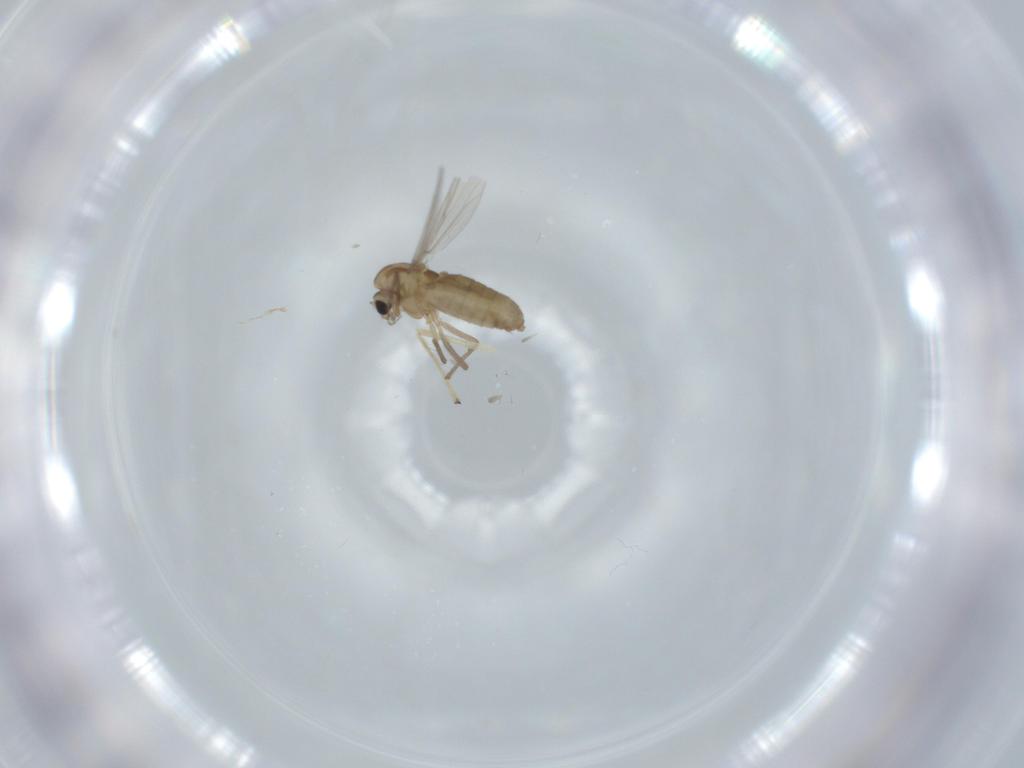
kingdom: Animalia
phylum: Arthropoda
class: Insecta
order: Diptera
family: Chironomidae
